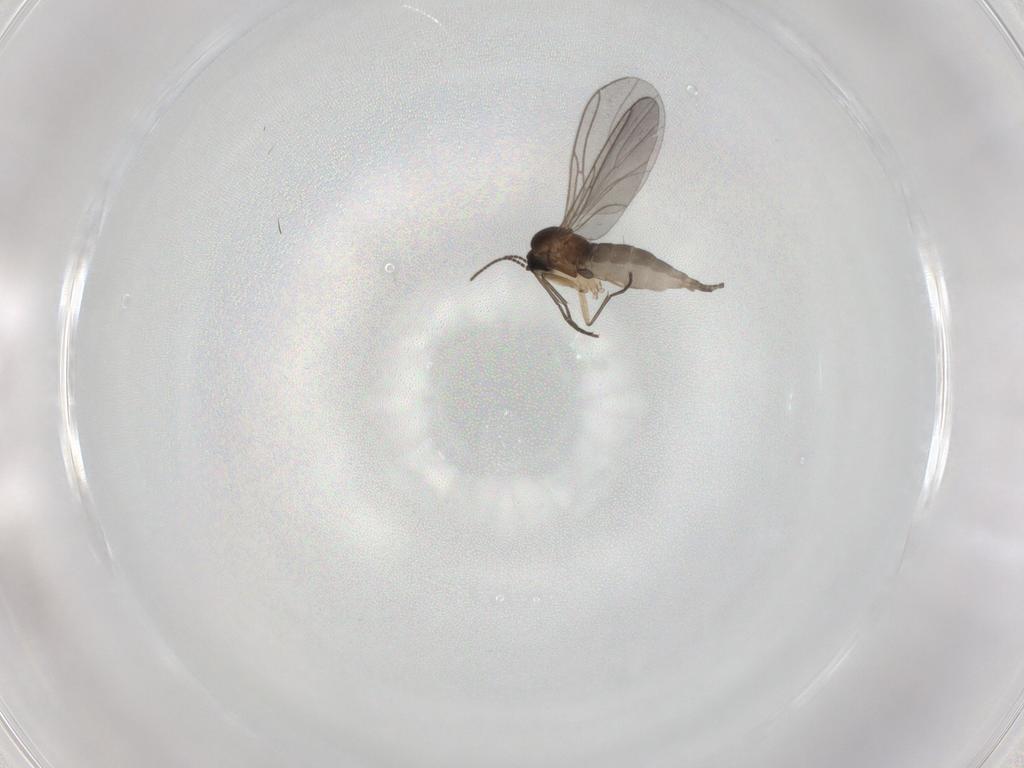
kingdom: Animalia
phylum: Arthropoda
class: Insecta
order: Diptera
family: Sciaridae
